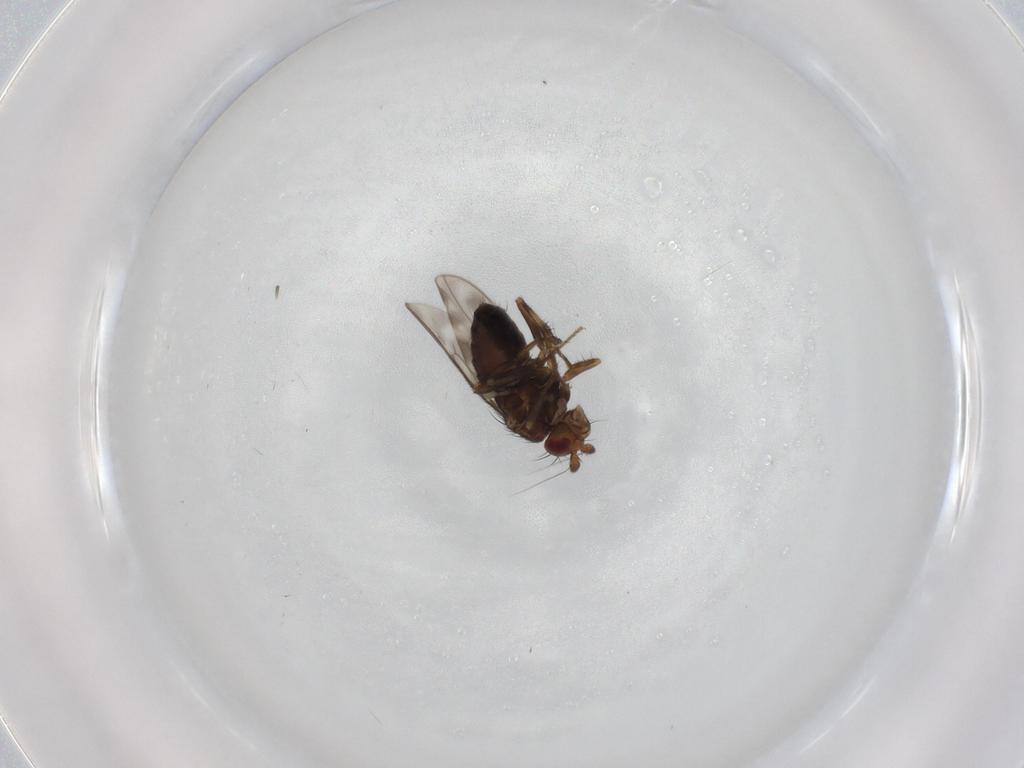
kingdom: Animalia
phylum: Arthropoda
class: Insecta
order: Diptera
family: Sphaeroceridae
